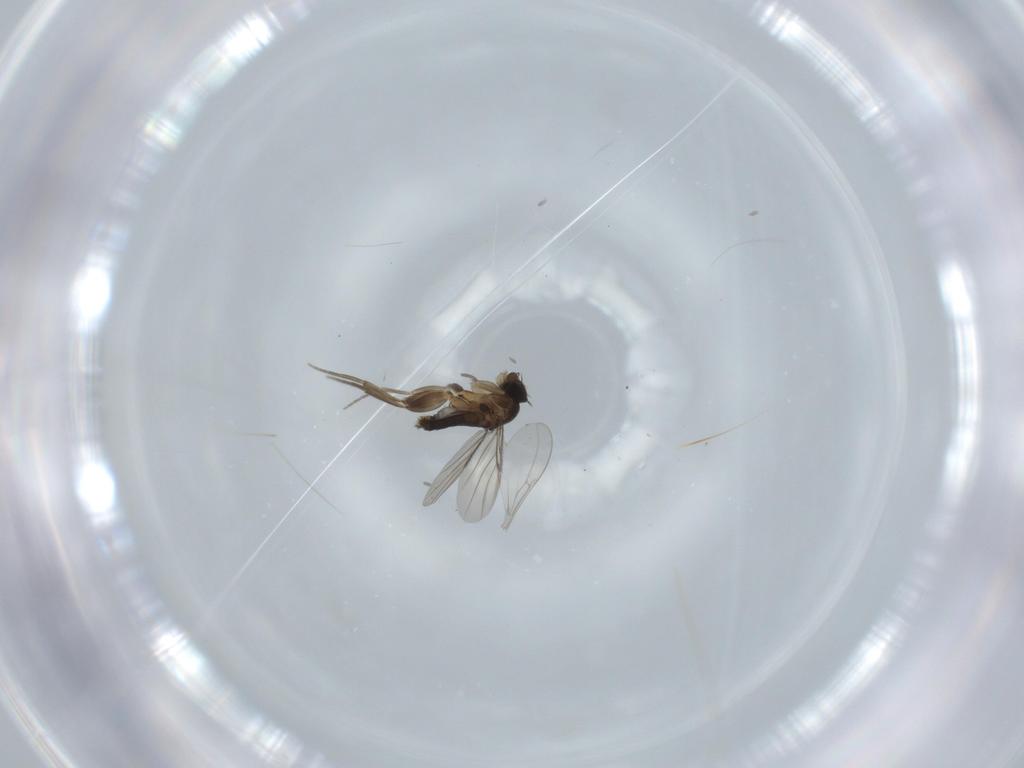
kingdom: Animalia
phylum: Arthropoda
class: Insecta
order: Diptera
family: Phoridae
